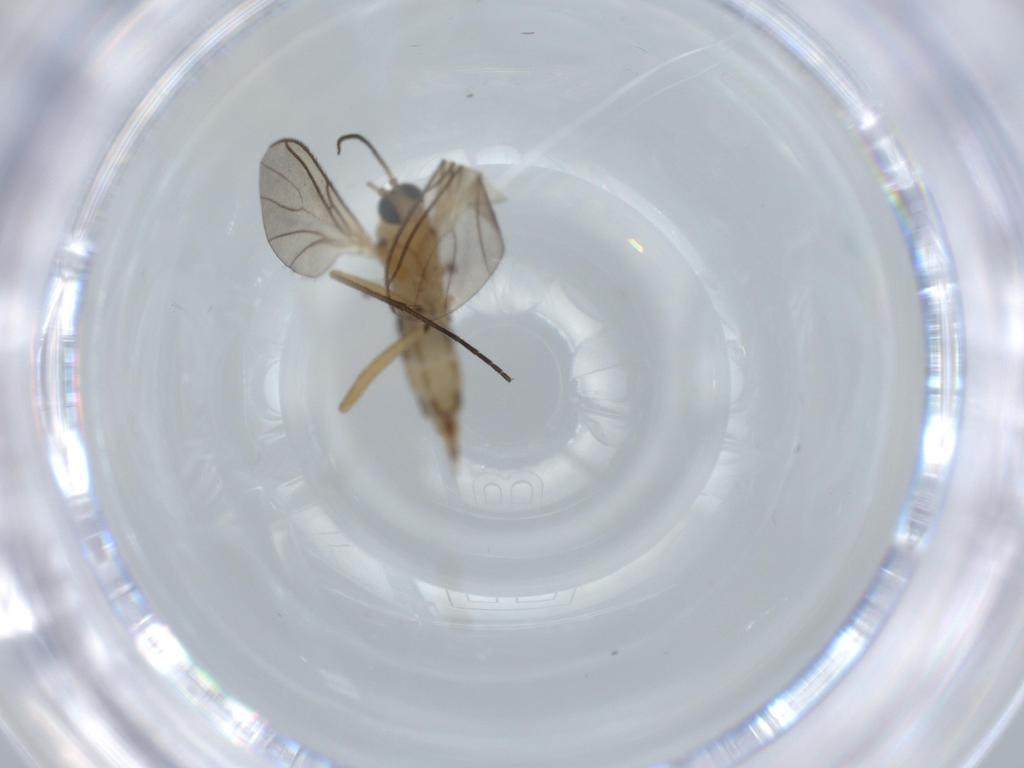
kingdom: Animalia
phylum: Arthropoda
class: Insecta
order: Diptera
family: Sciaridae
